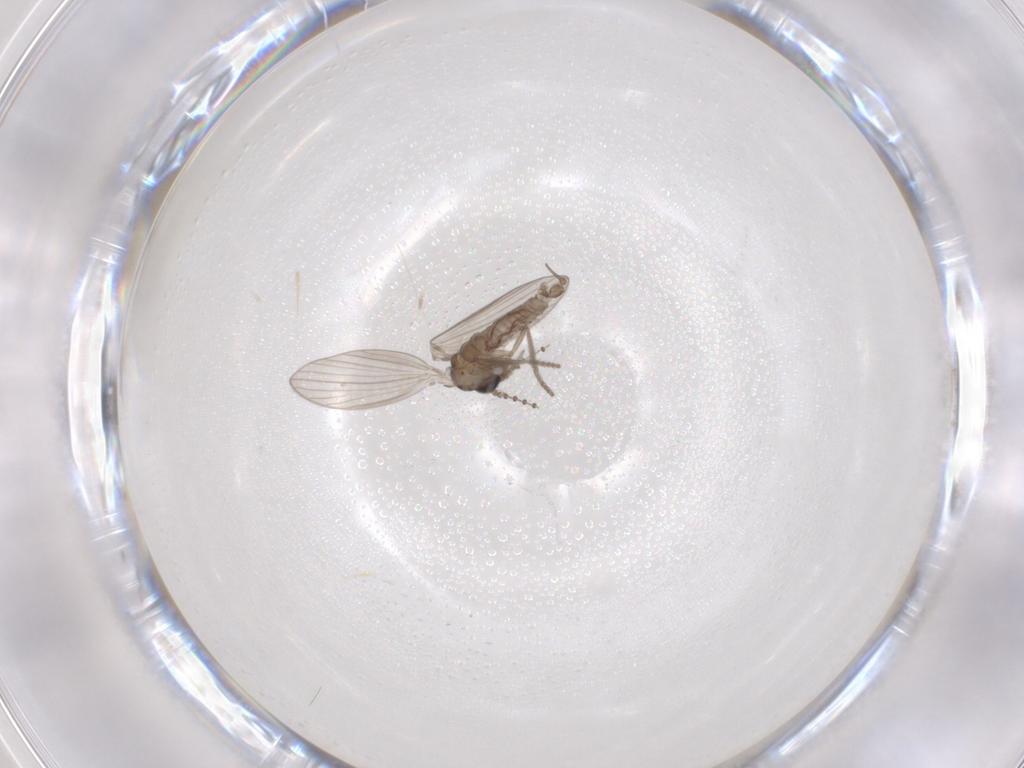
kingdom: Animalia
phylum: Arthropoda
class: Insecta
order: Diptera
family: Psychodidae
